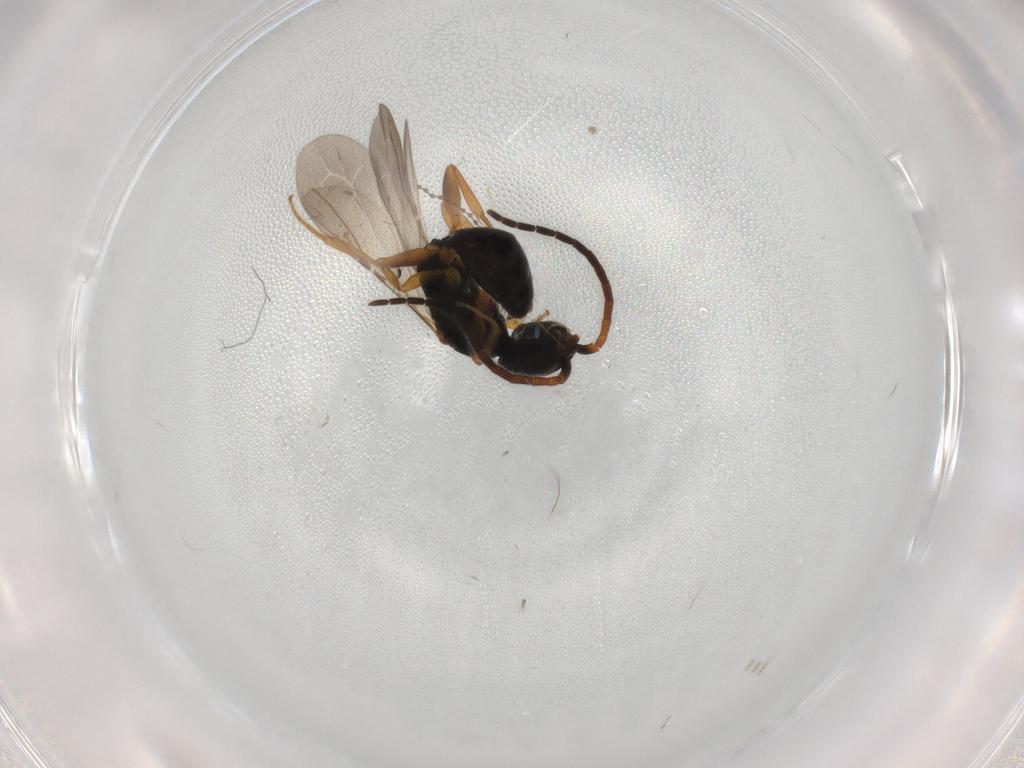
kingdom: Animalia
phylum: Arthropoda
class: Insecta
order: Hymenoptera
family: Bethylidae
